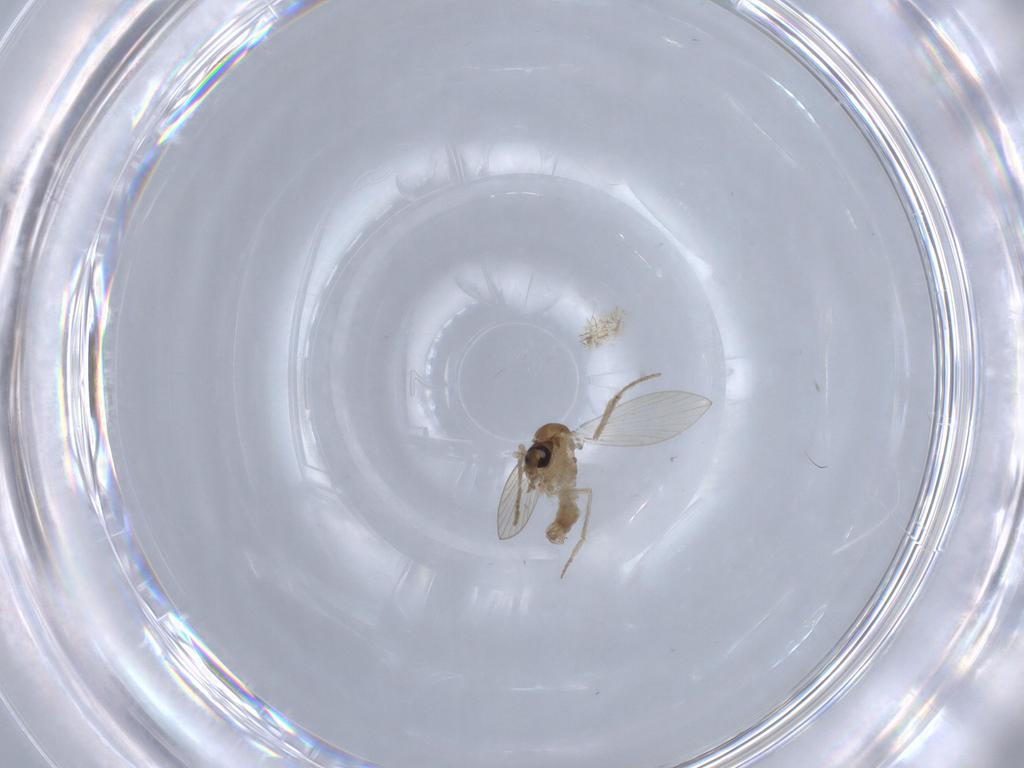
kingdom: Animalia
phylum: Arthropoda
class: Insecta
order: Diptera
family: Psychodidae
